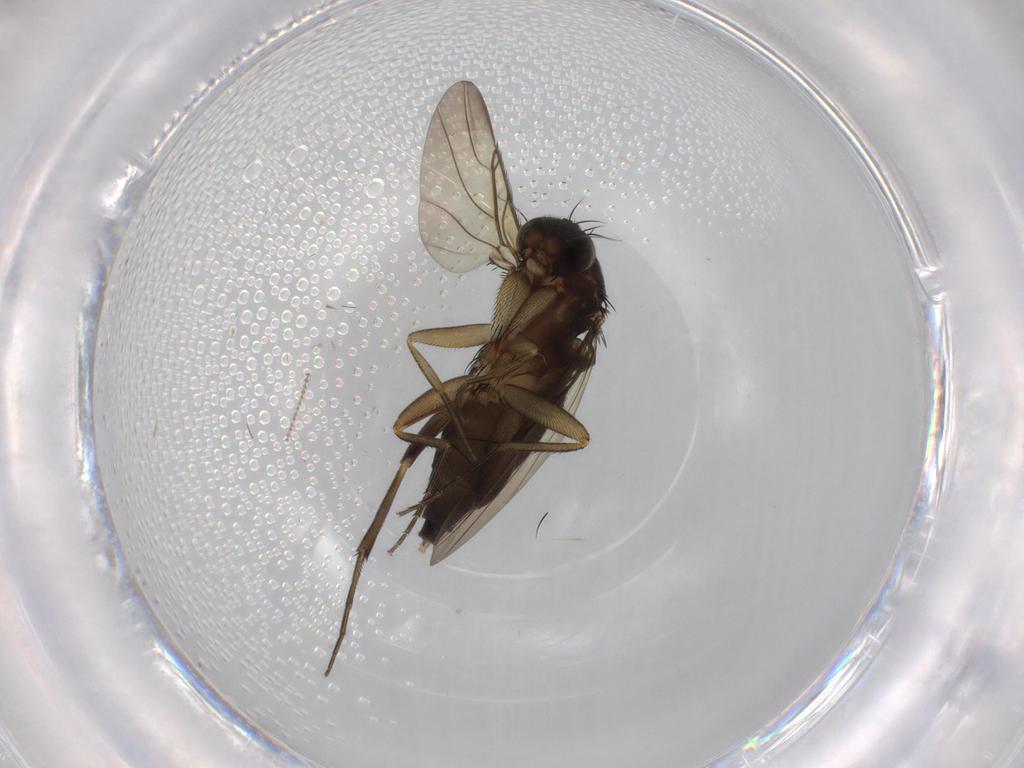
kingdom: Animalia
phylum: Arthropoda
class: Insecta
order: Diptera
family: Phoridae
